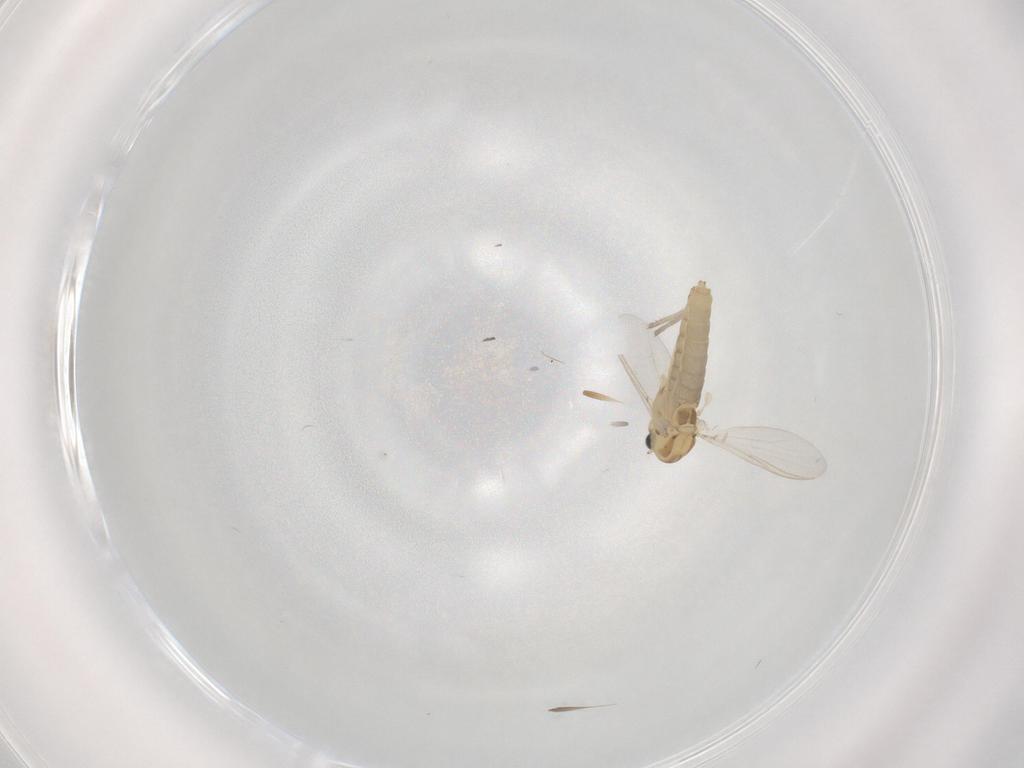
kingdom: Animalia
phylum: Arthropoda
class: Insecta
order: Diptera
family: Chironomidae
